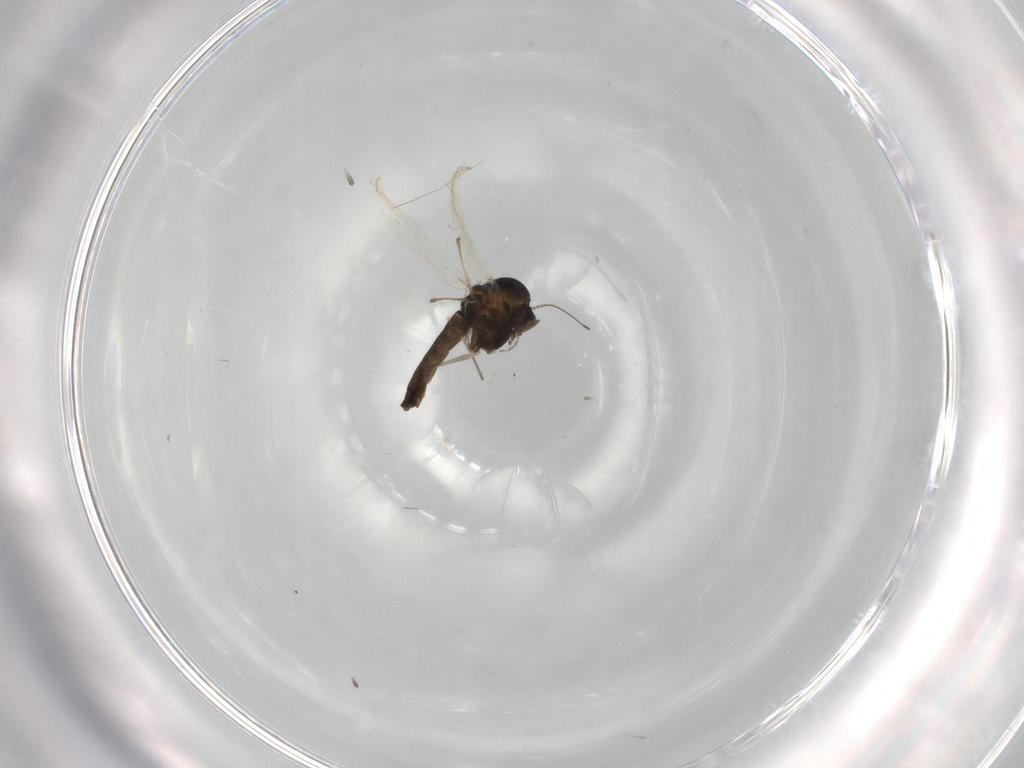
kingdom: Animalia
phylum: Arthropoda
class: Insecta
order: Diptera
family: Chironomidae
